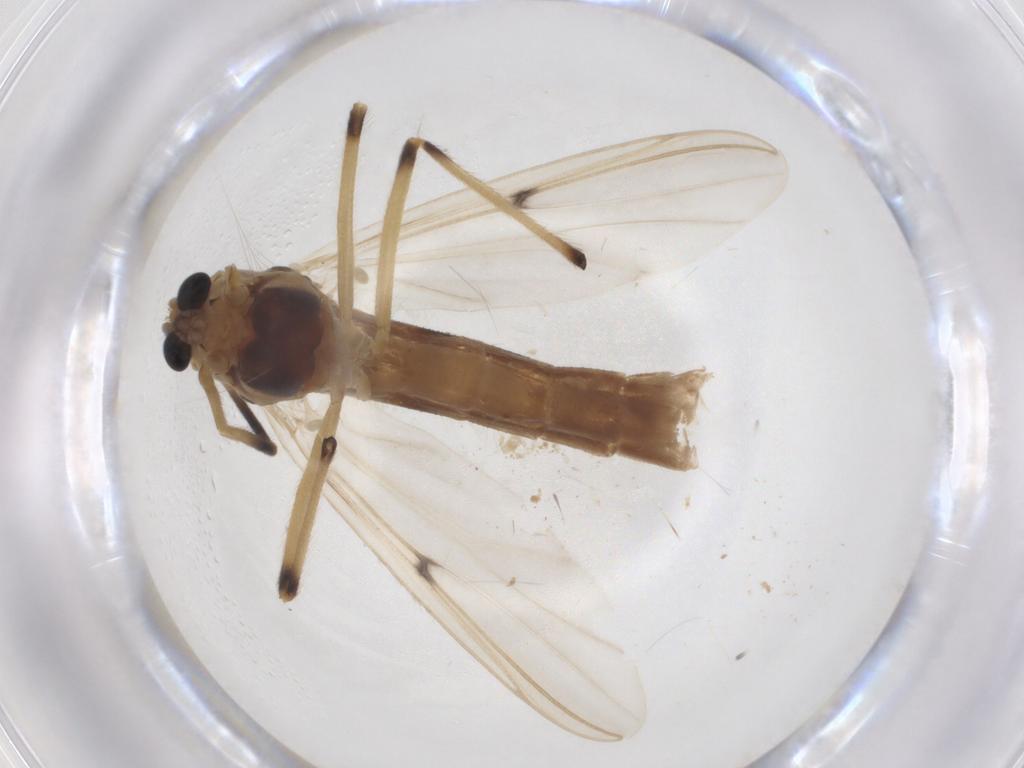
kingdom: Animalia
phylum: Arthropoda
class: Insecta
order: Diptera
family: Chironomidae
